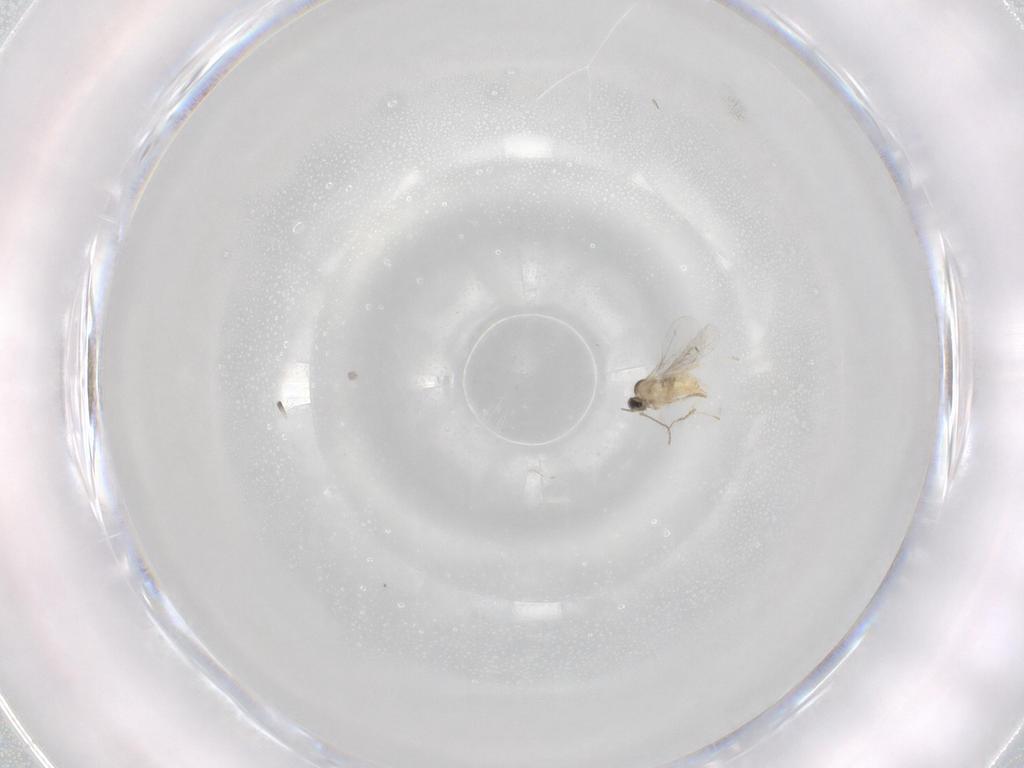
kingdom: Animalia
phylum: Arthropoda
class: Insecta
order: Diptera
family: Cecidomyiidae
